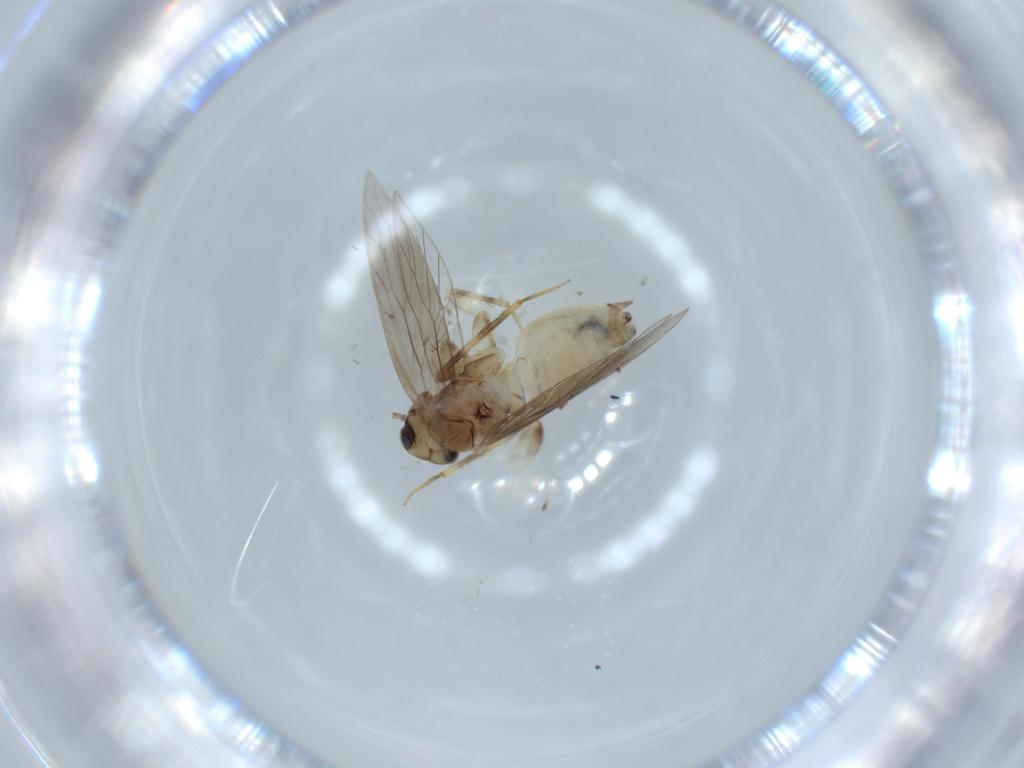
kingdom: Animalia
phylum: Arthropoda
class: Insecta
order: Psocodea
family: Lepidopsocidae
